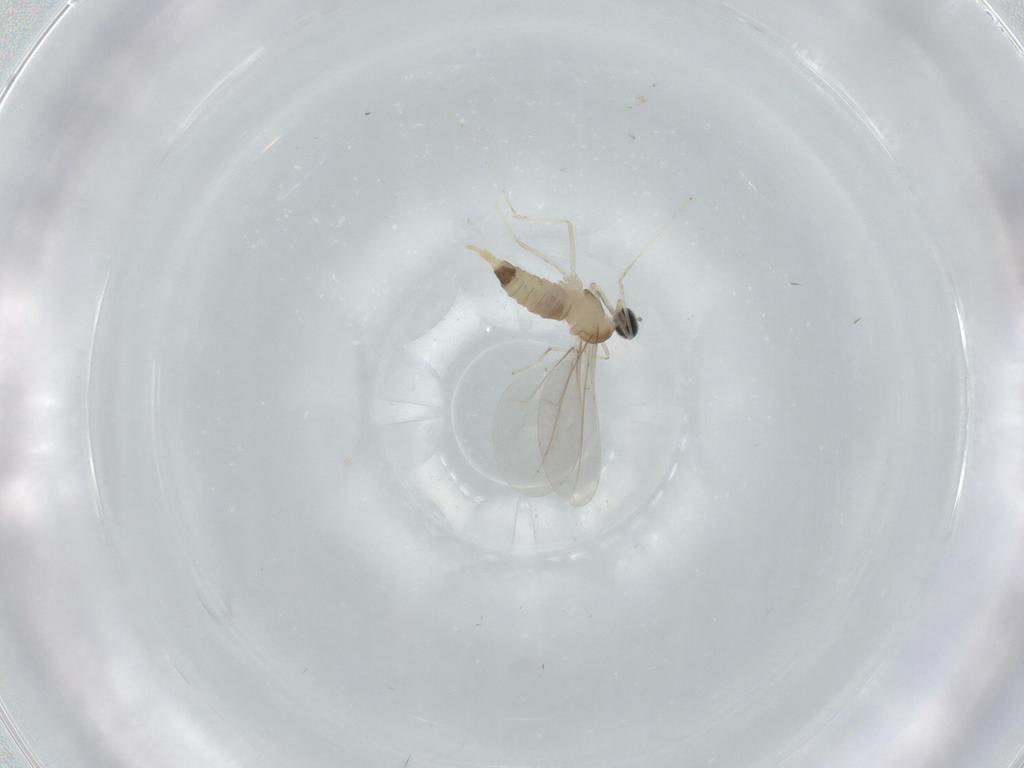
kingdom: Animalia
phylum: Arthropoda
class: Insecta
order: Diptera
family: Cecidomyiidae
